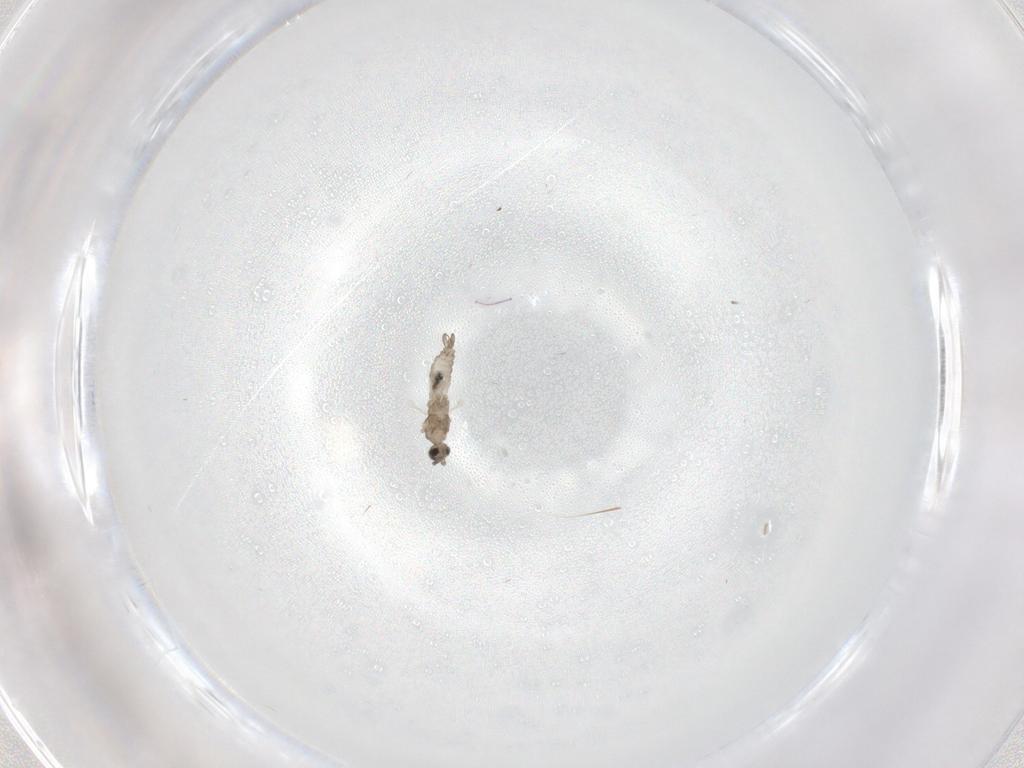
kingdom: Animalia
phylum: Arthropoda
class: Insecta
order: Diptera
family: Cecidomyiidae
